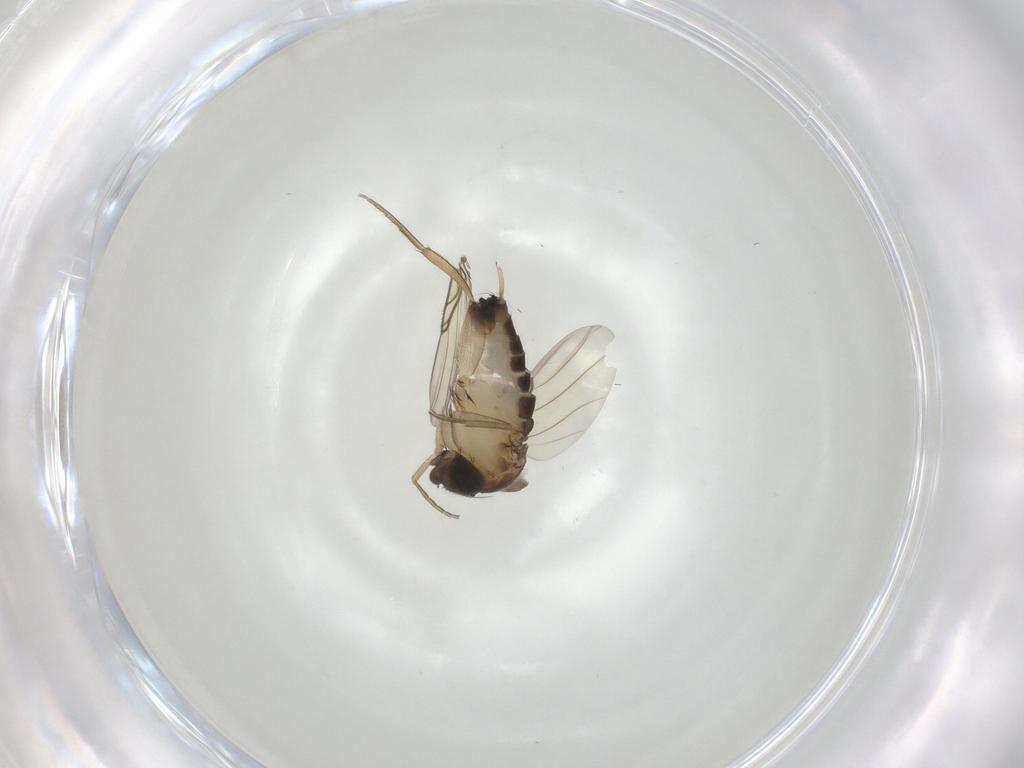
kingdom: Animalia
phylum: Arthropoda
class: Insecta
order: Diptera
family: Phoridae
